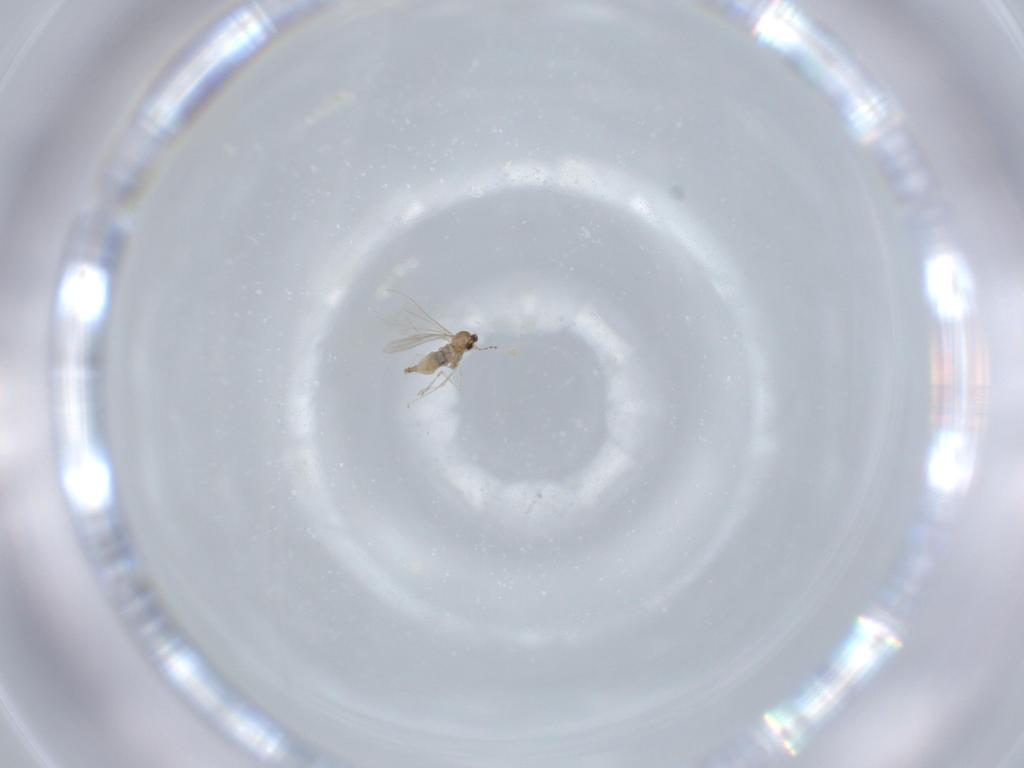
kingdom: Animalia
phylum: Arthropoda
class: Insecta
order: Diptera
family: Cecidomyiidae
